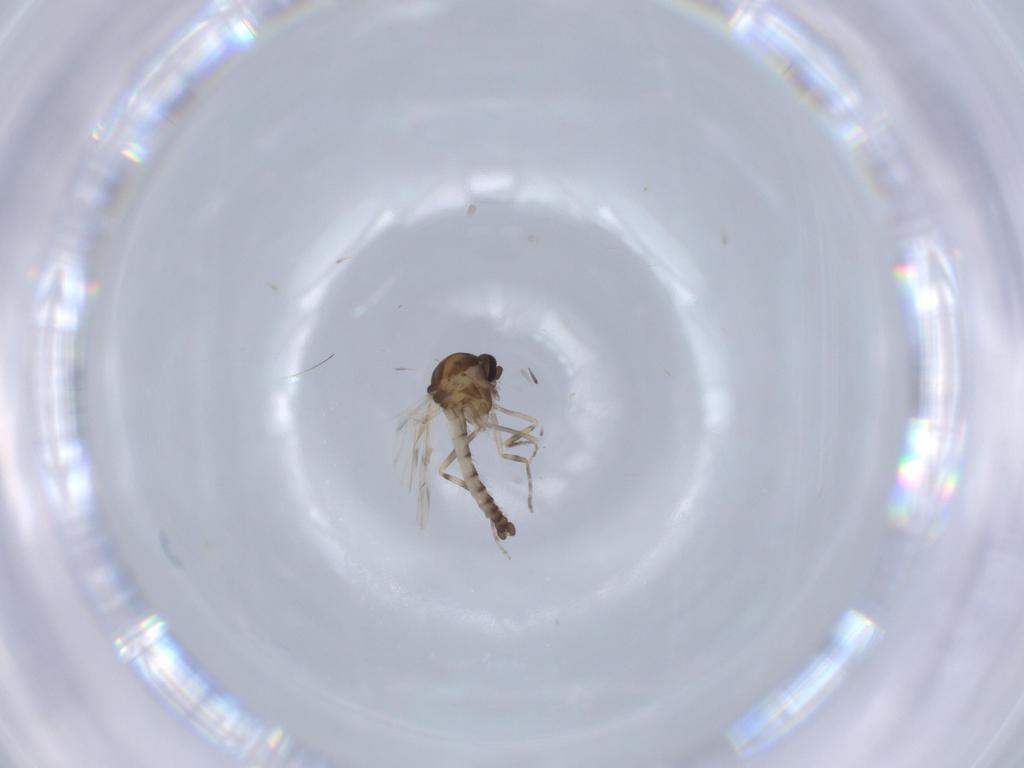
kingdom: Animalia
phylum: Arthropoda
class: Insecta
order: Diptera
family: Ceratopogonidae
